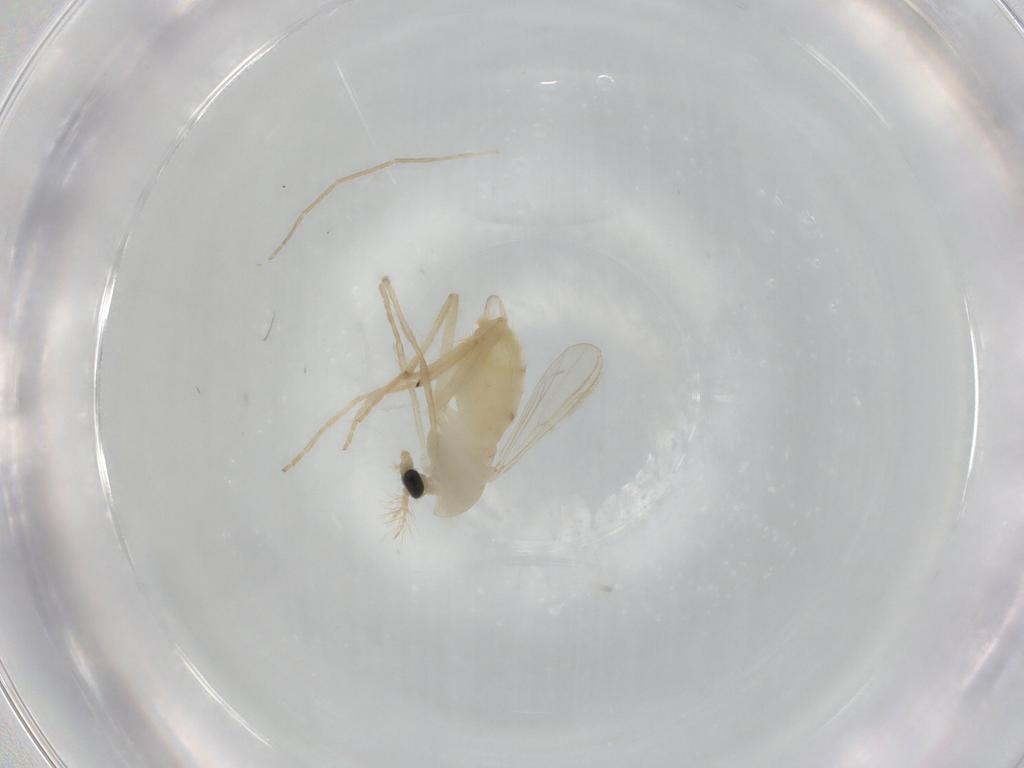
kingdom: Animalia
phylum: Arthropoda
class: Insecta
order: Diptera
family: Chironomidae
